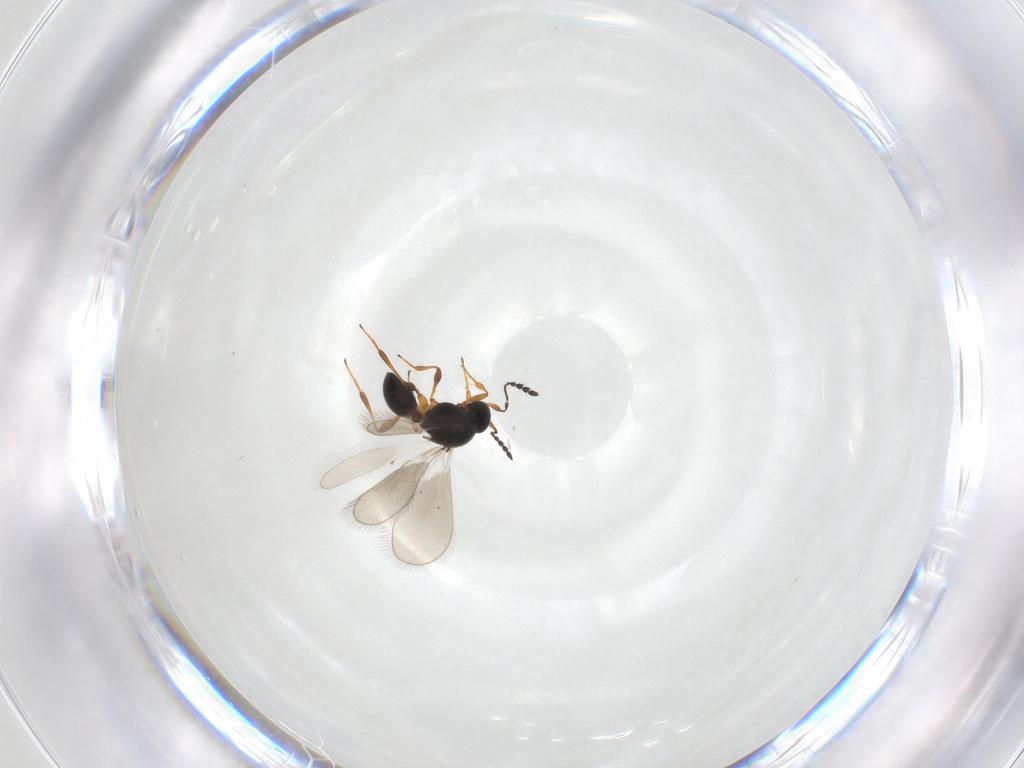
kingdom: Animalia
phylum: Arthropoda
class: Insecta
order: Hymenoptera
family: Platygastridae
